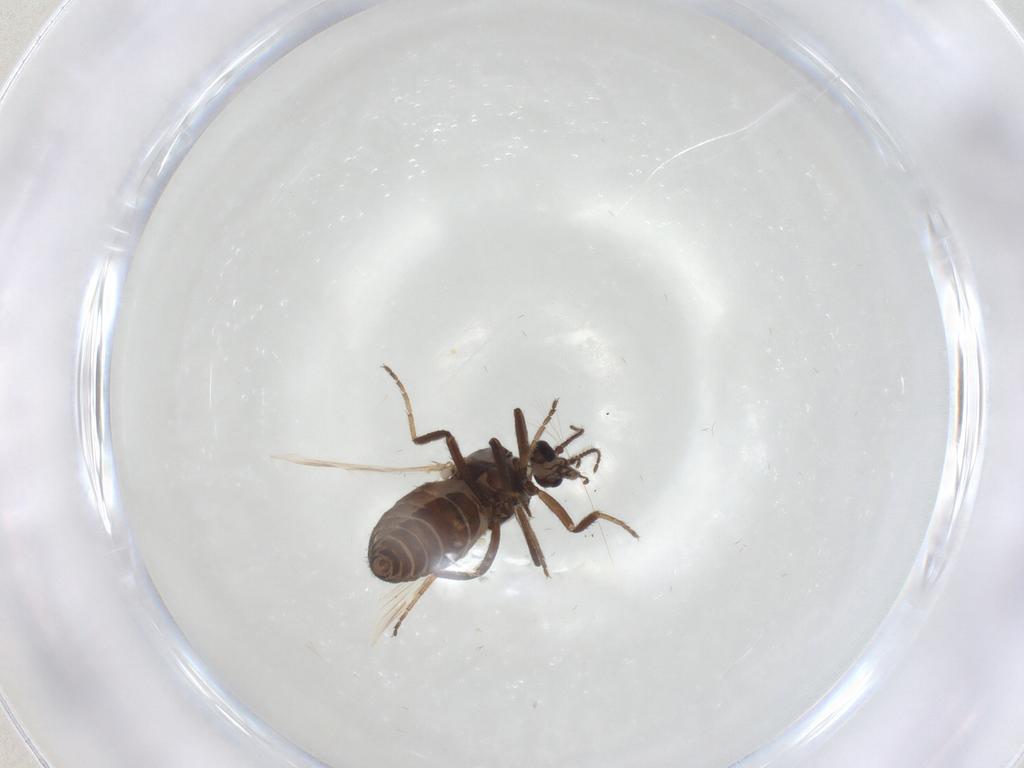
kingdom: Animalia
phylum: Arthropoda
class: Insecta
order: Diptera
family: Ceratopogonidae
